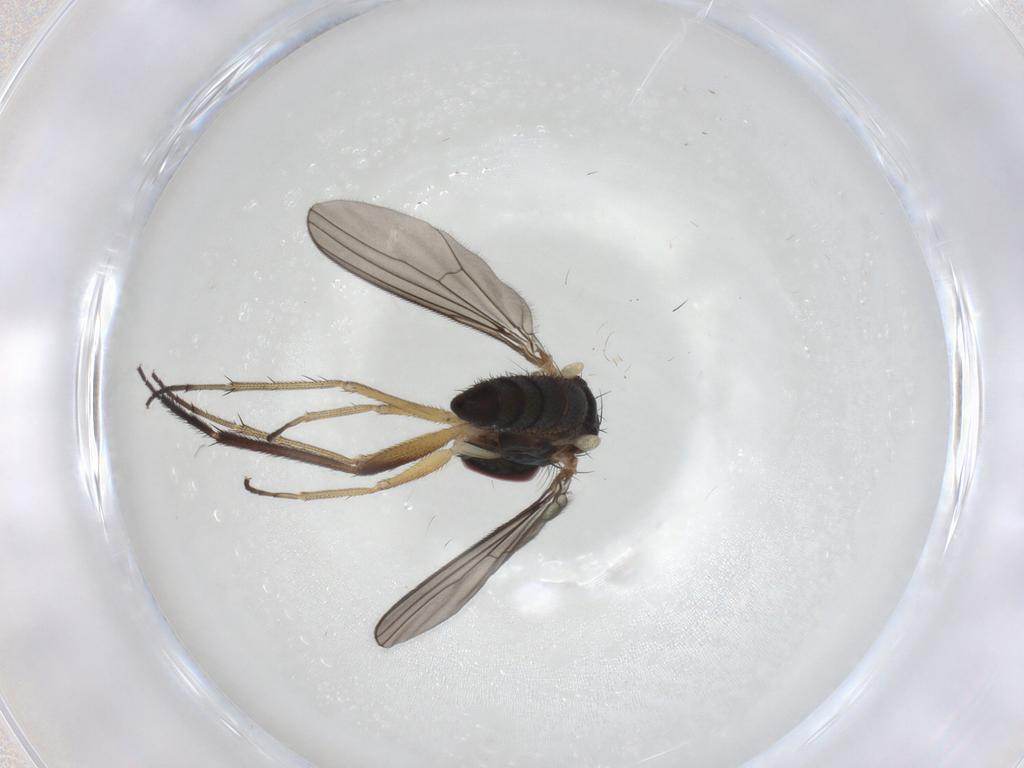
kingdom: Animalia
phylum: Arthropoda
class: Insecta
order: Diptera
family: Dolichopodidae
